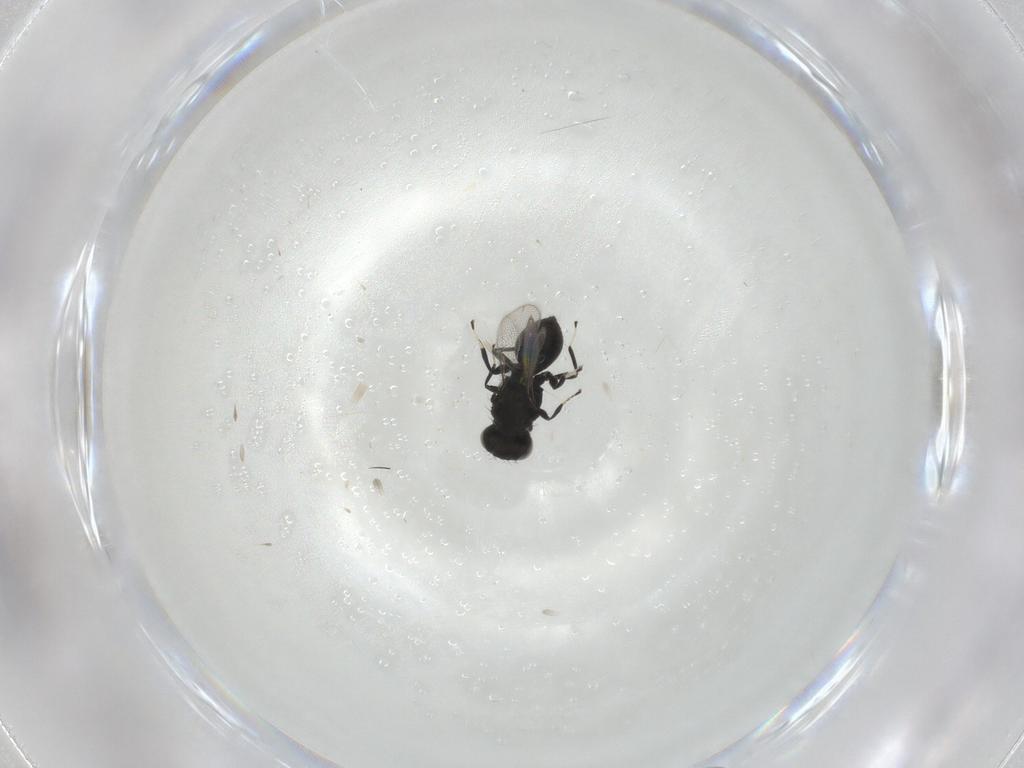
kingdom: Animalia
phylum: Arthropoda
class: Insecta
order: Hymenoptera
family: Eulophidae
